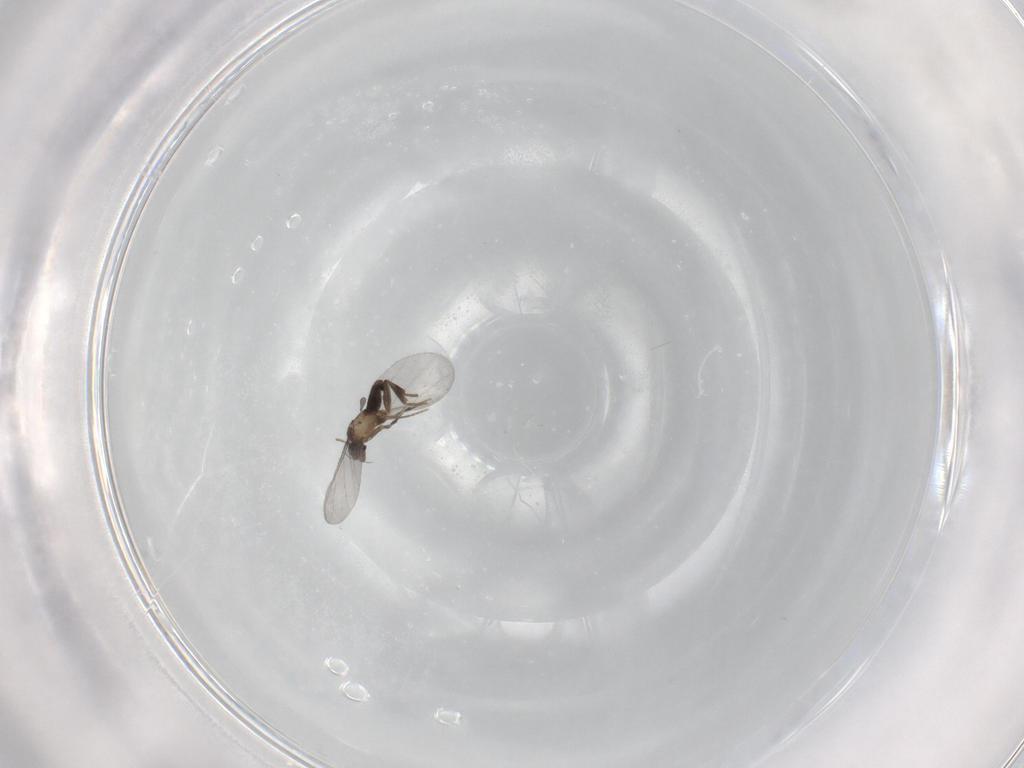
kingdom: Animalia
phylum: Arthropoda
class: Insecta
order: Diptera
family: Phoridae
